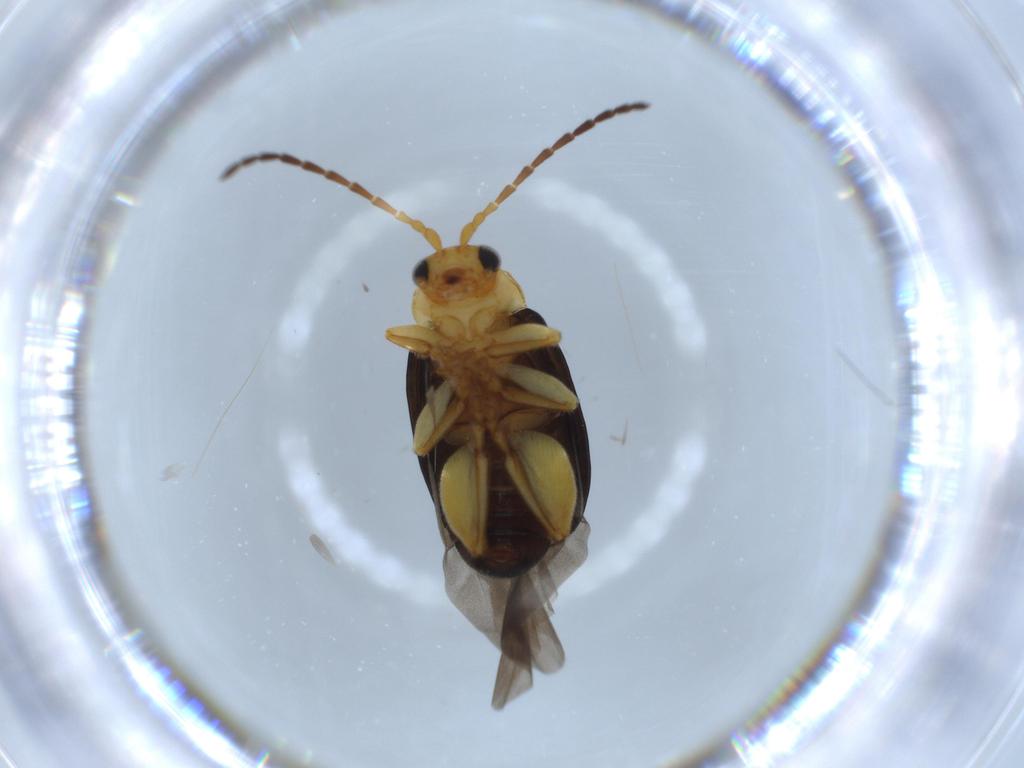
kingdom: Animalia
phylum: Arthropoda
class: Insecta
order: Coleoptera
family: Chrysomelidae
